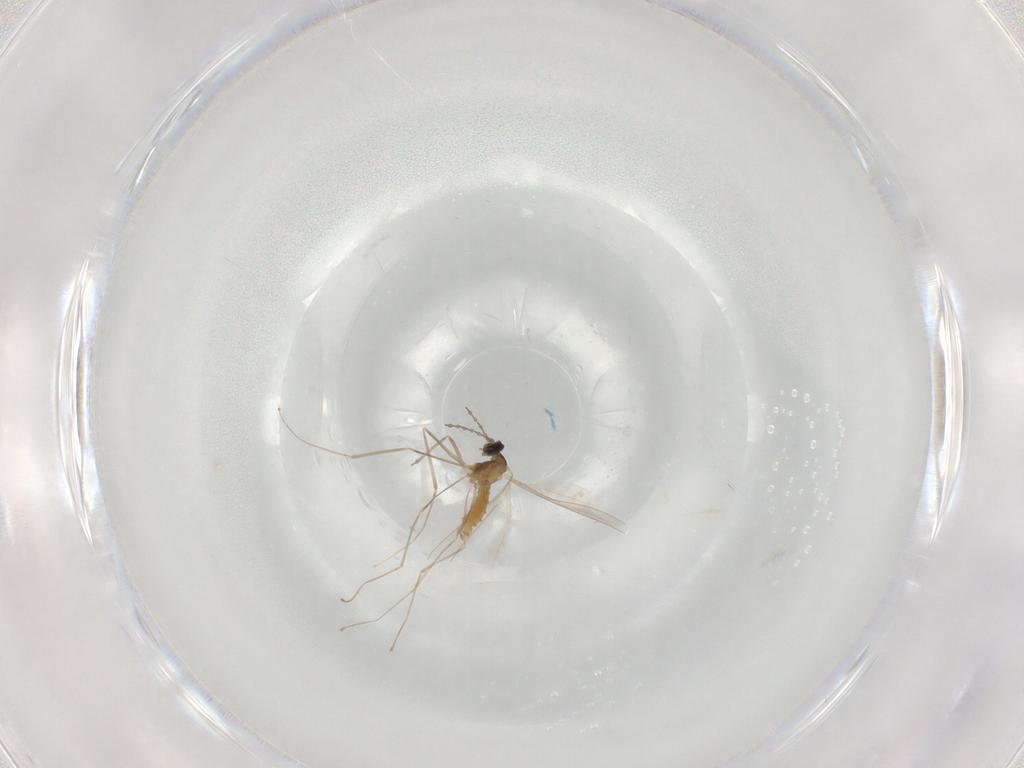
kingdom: Animalia
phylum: Arthropoda
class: Insecta
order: Diptera
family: Cecidomyiidae
